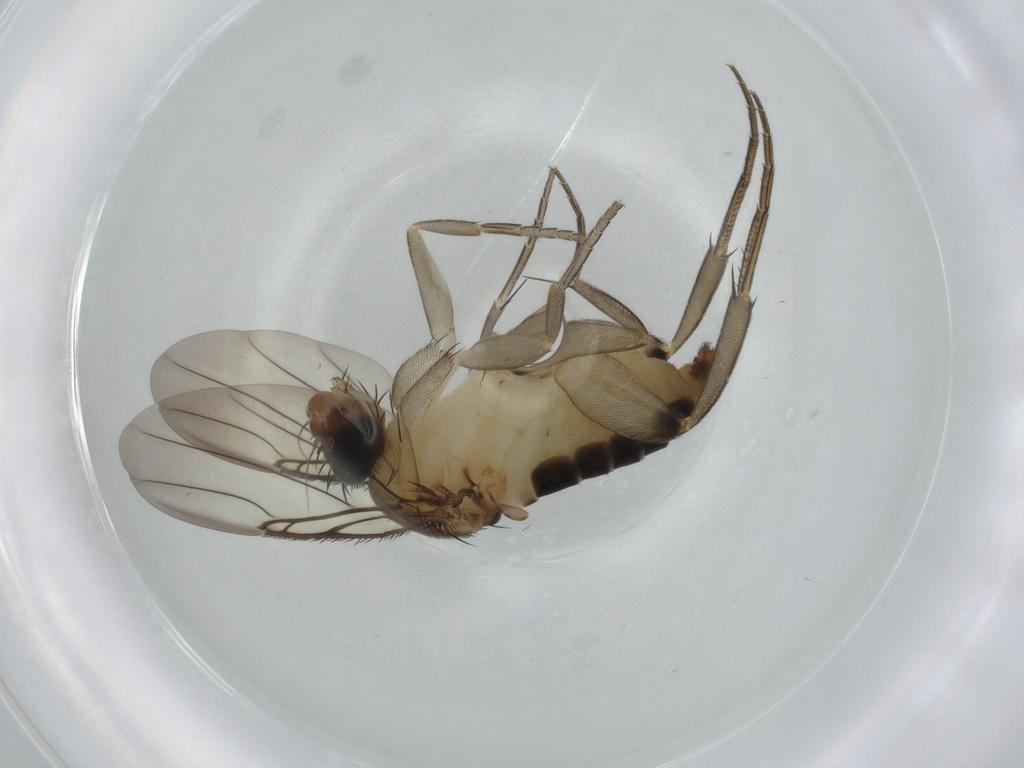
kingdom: Animalia
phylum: Arthropoda
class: Insecta
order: Diptera
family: Phoridae
